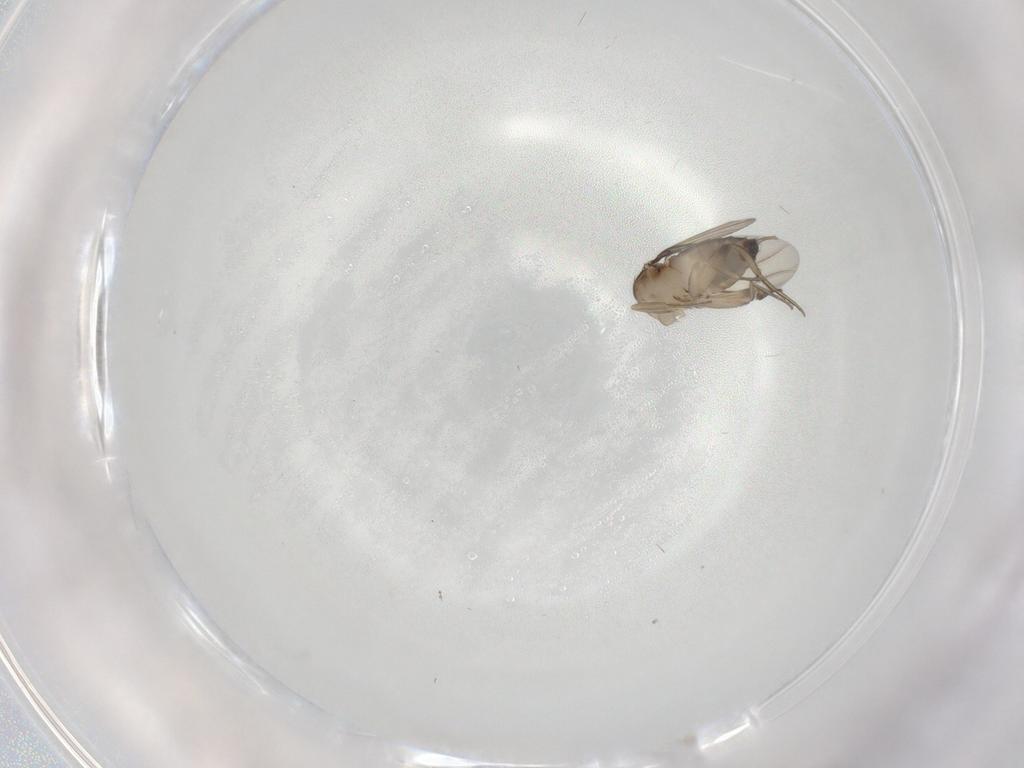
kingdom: Animalia
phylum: Arthropoda
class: Insecta
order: Diptera
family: Phoridae
